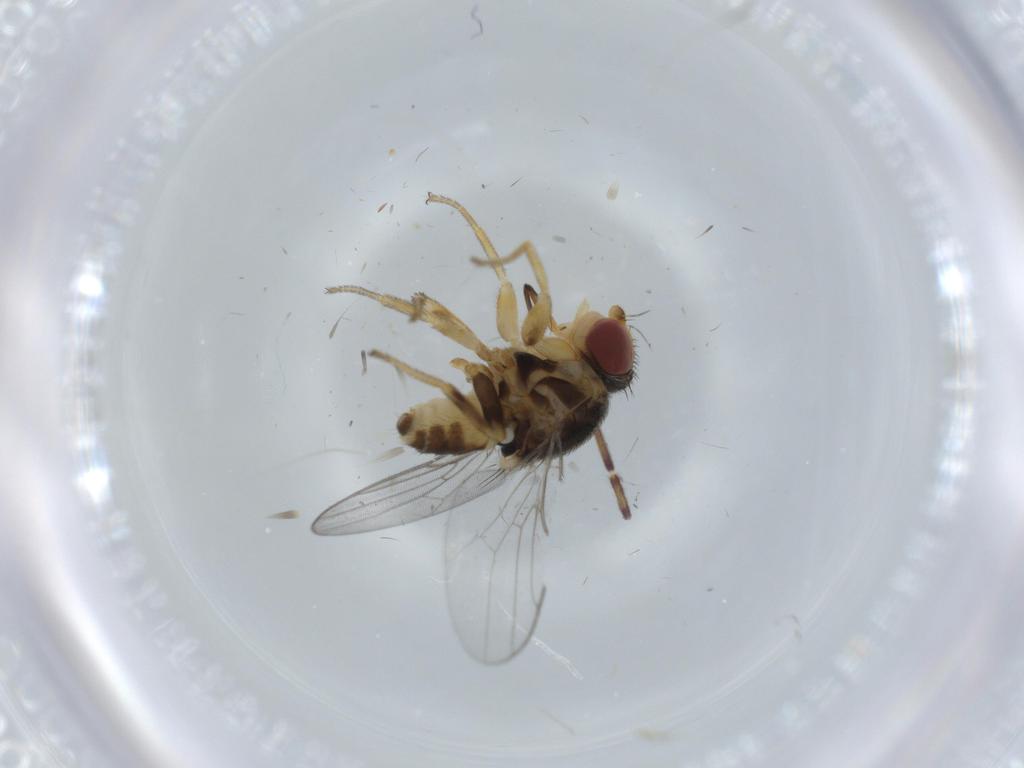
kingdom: Animalia
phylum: Arthropoda
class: Insecta
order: Diptera
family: Chloropidae
